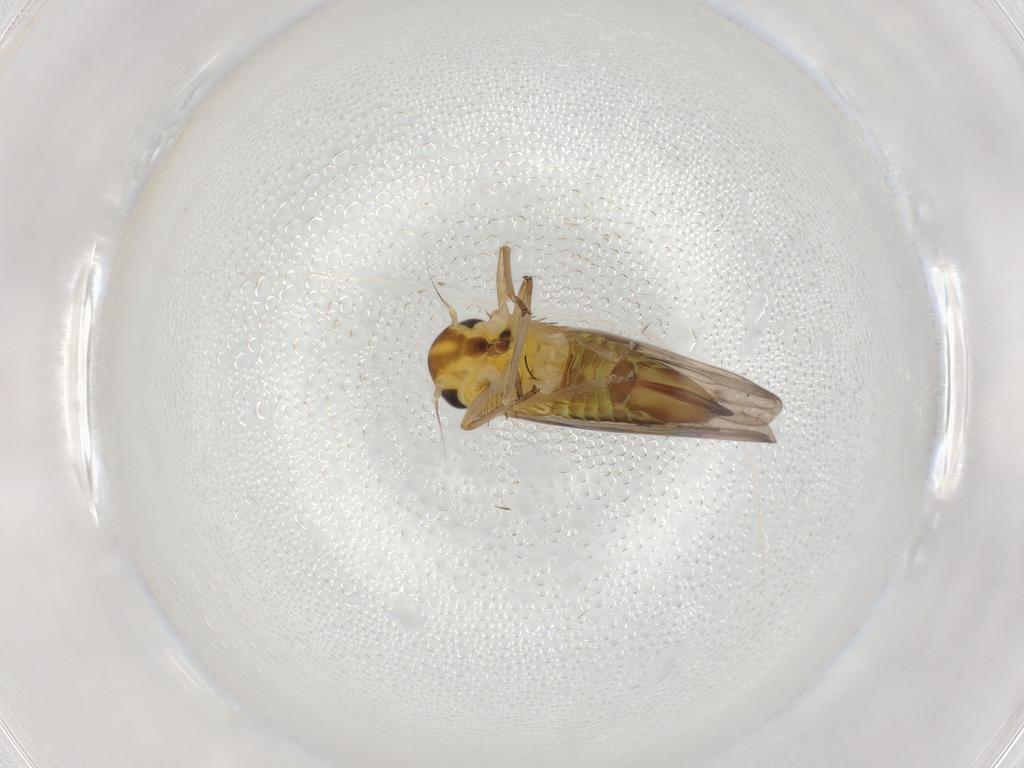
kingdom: Animalia
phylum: Arthropoda
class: Insecta
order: Hemiptera
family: Cicadellidae
